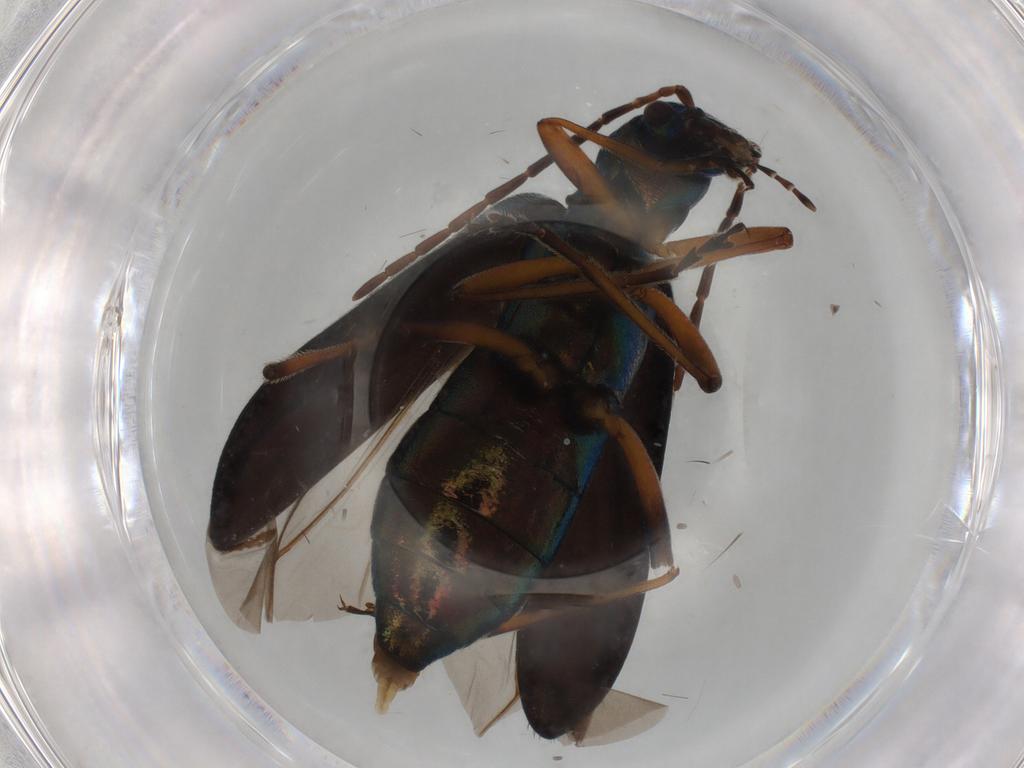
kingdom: Animalia
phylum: Arthropoda
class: Insecta
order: Coleoptera
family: Oedemeridae
